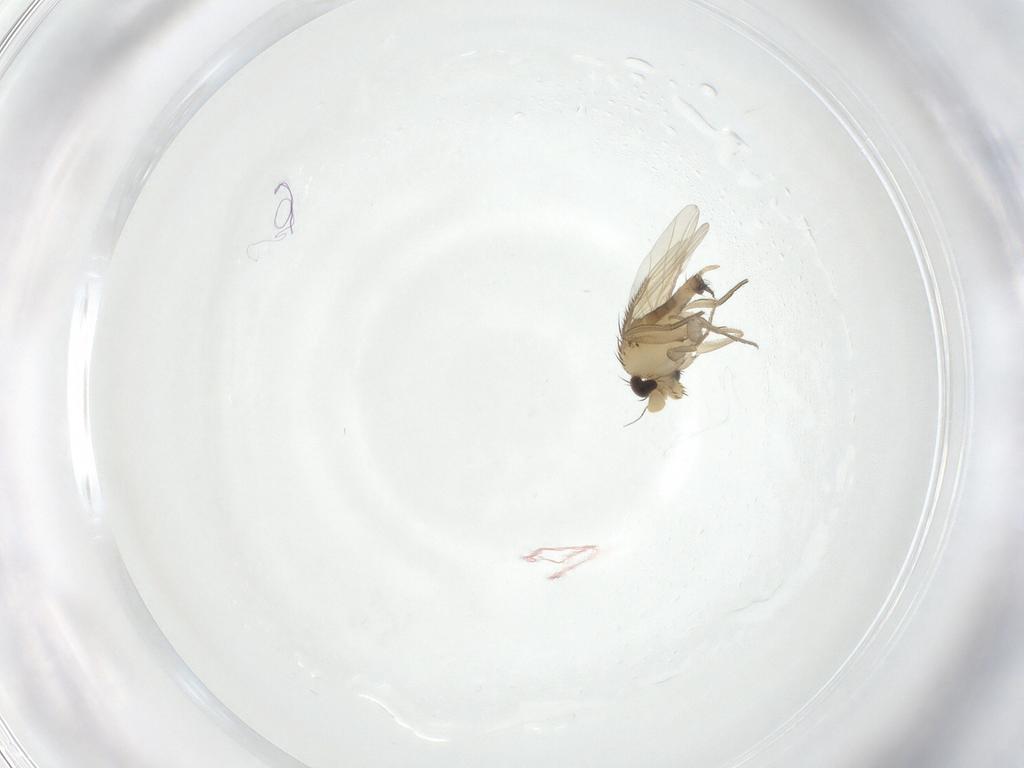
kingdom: Animalia
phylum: Arthropoda
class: Insecta
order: Diptera
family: Phoridae
